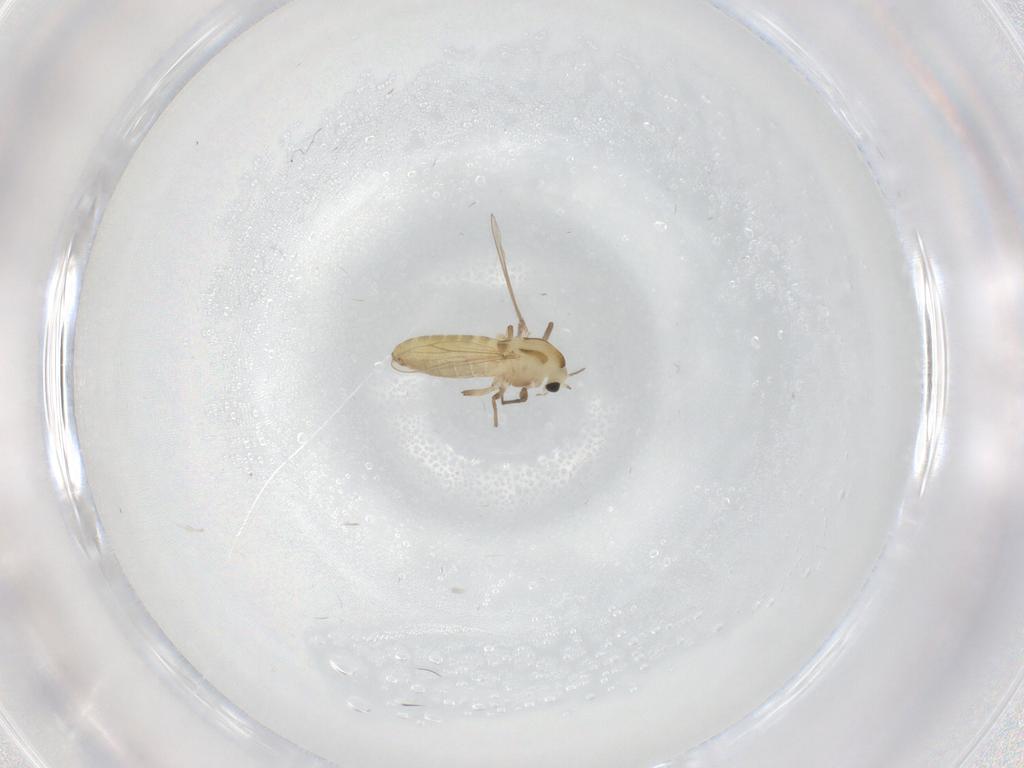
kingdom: Animalia
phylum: Arthropoda
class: Insecta
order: Diptera
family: Chironomidae
